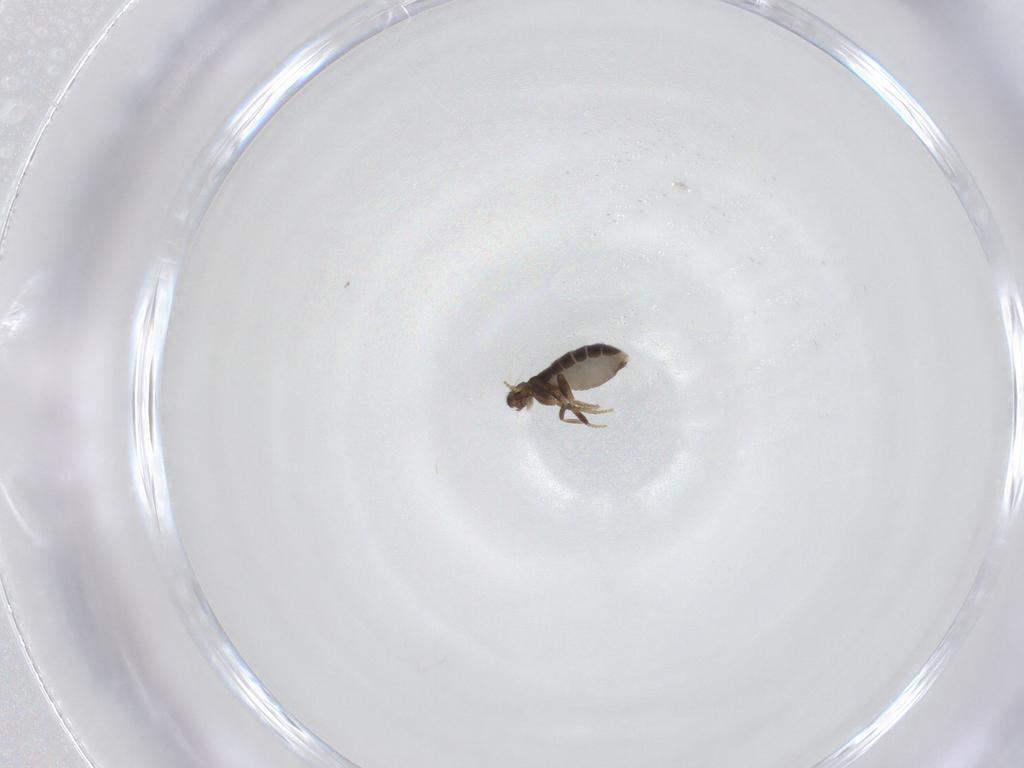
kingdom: Animalia
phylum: Arthropoda
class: Insecta
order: Diptera
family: Phoridae
